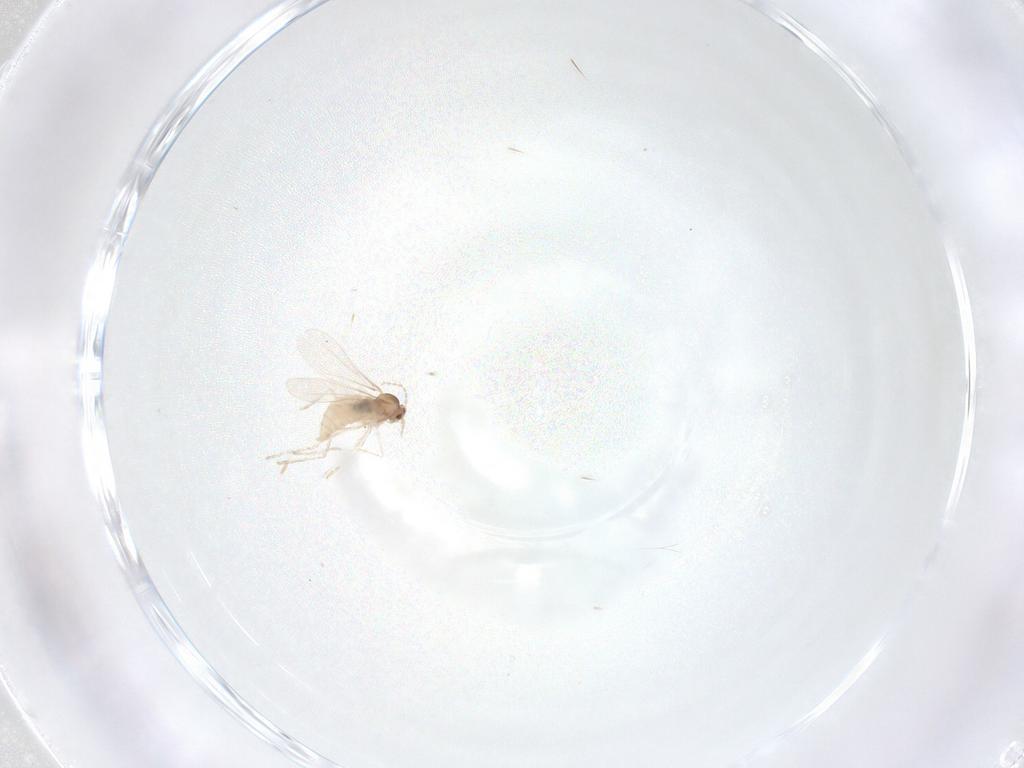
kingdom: Animalia
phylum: Arthropoda
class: Insecta
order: Diptera
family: Cecidomyiidae
